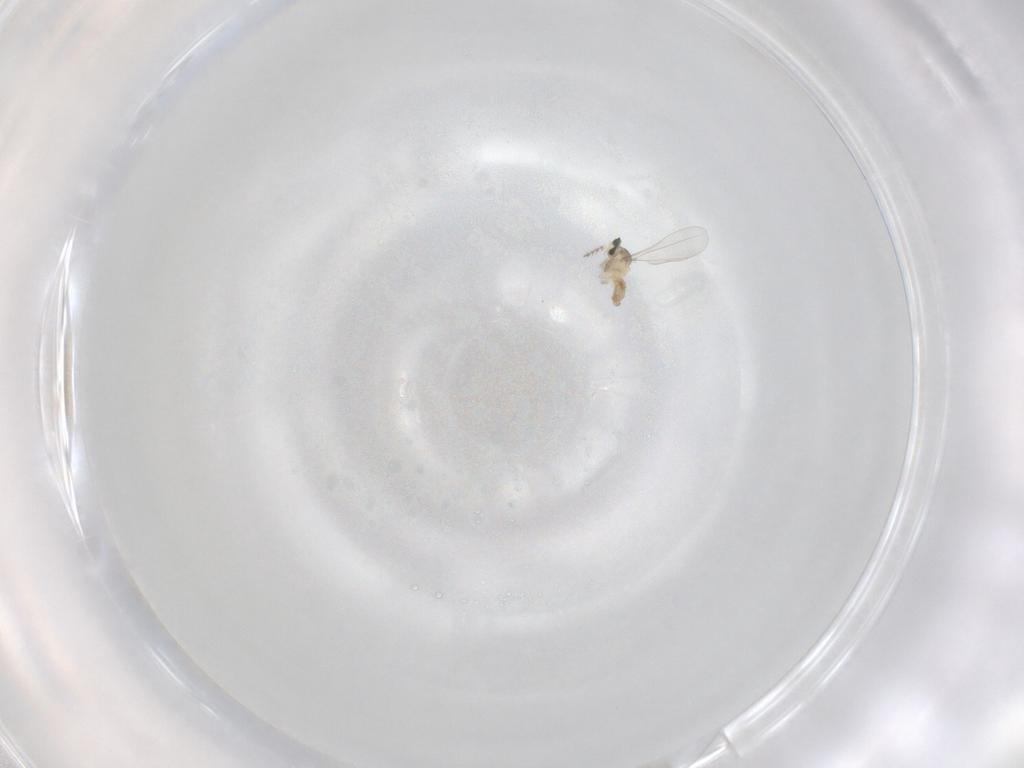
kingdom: Animalia
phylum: Arthropoda
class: Insecta
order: Diptera
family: Cecidomyiidae
